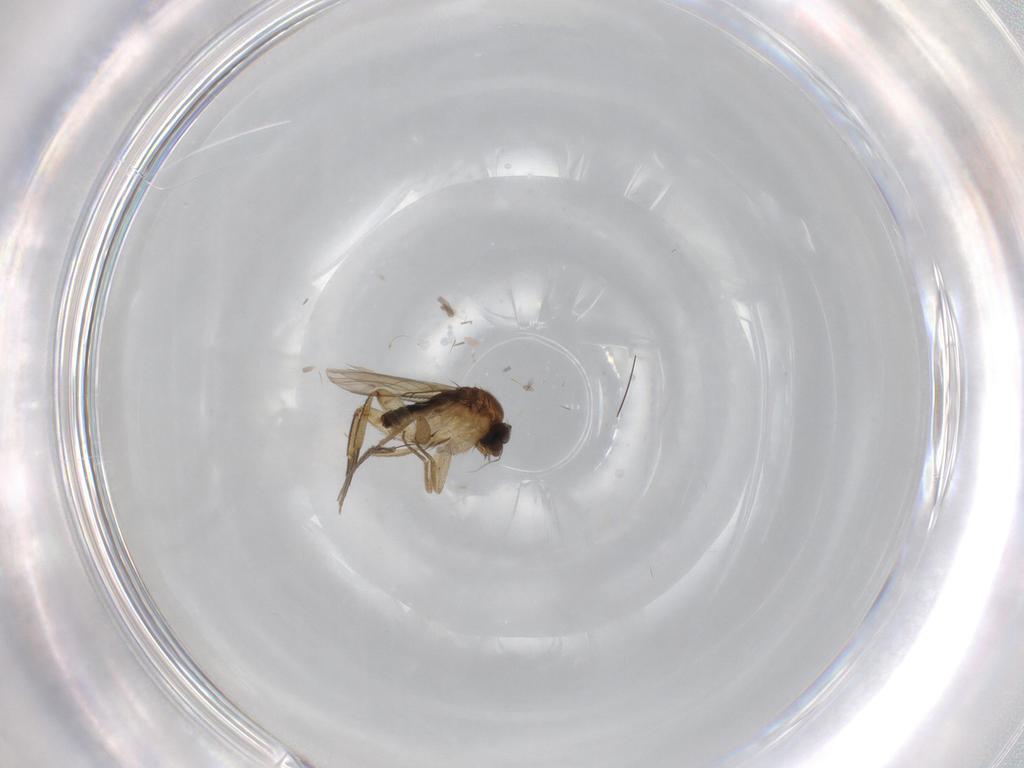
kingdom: Animalia
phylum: Arthropoda
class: Insecta
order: Diptera
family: Phoridae
